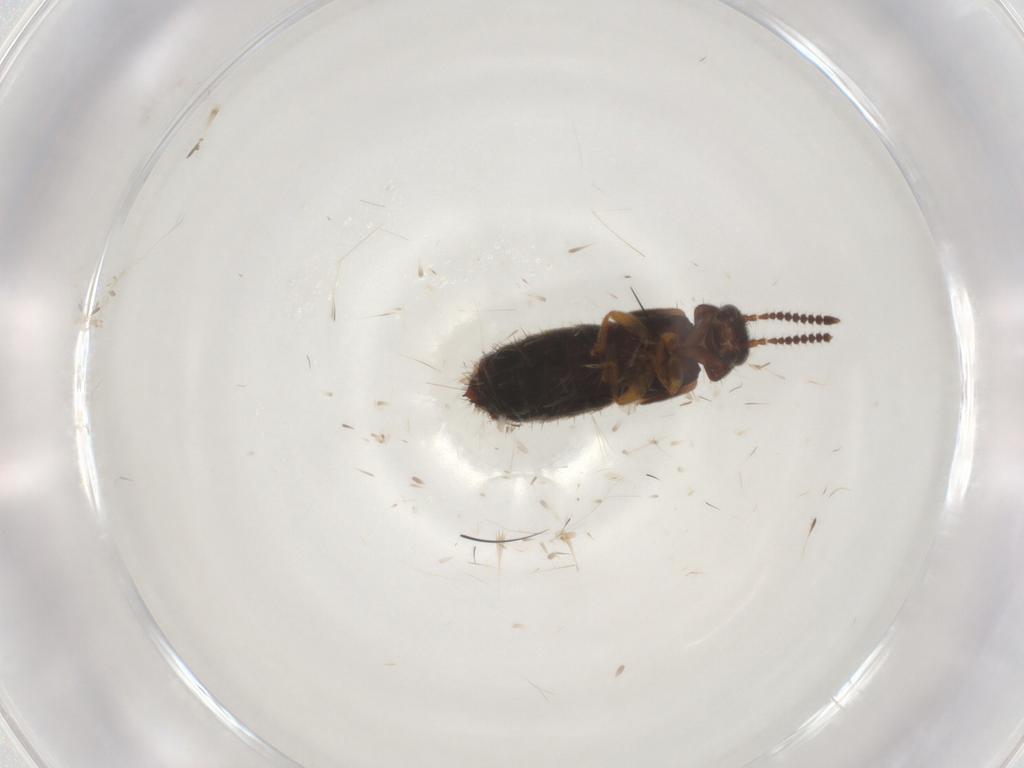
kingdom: Animalia
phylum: Arthropoda
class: Insecta
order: Coleoptera
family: Staphylinidae
